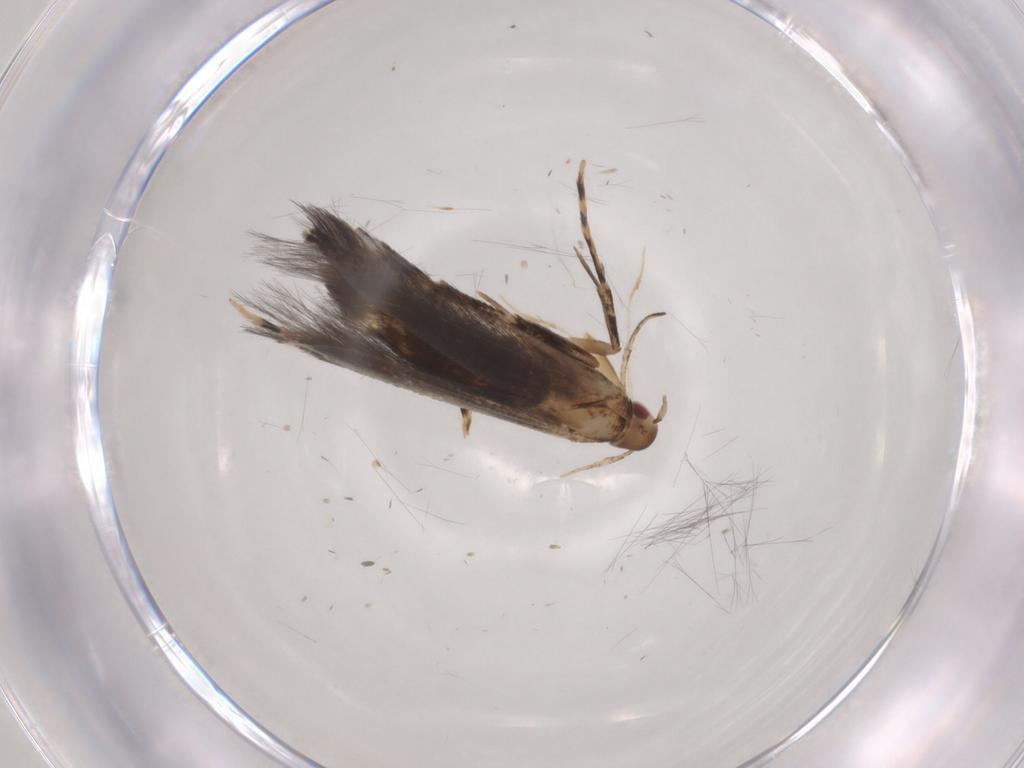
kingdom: Animalia
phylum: Arthropoda
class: Insecta
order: Lepidoptera
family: Cosmopterigidae
